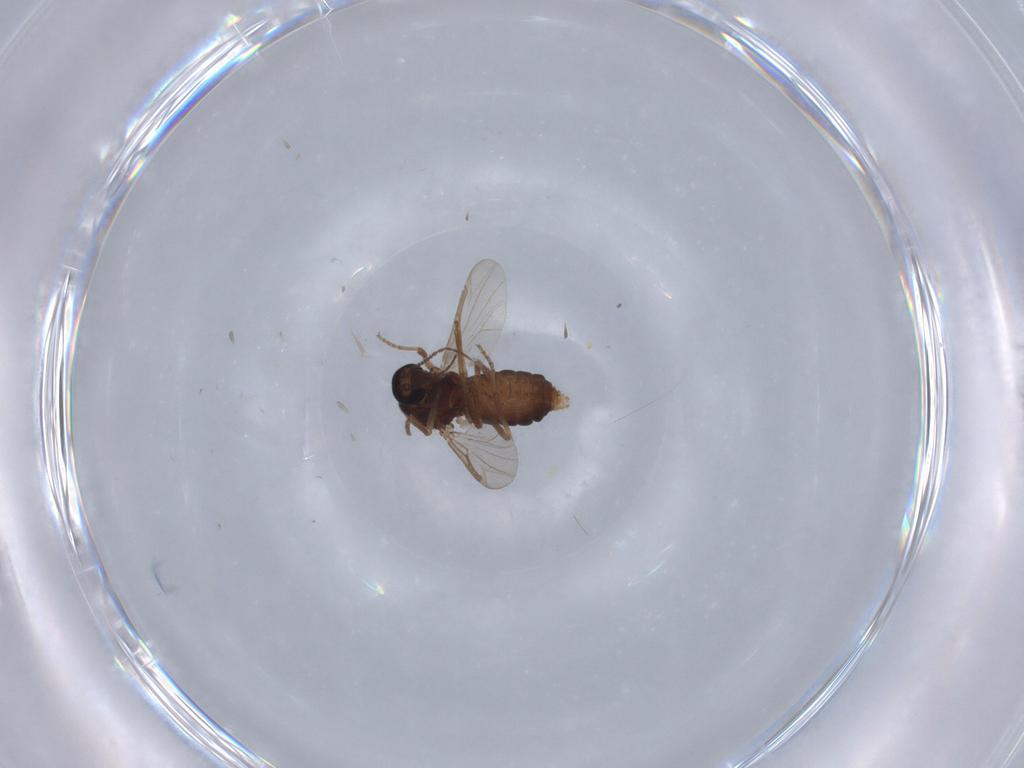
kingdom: Animalia
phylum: Arthropoda
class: Insecta
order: Diptera
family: Ceratopogonidae
